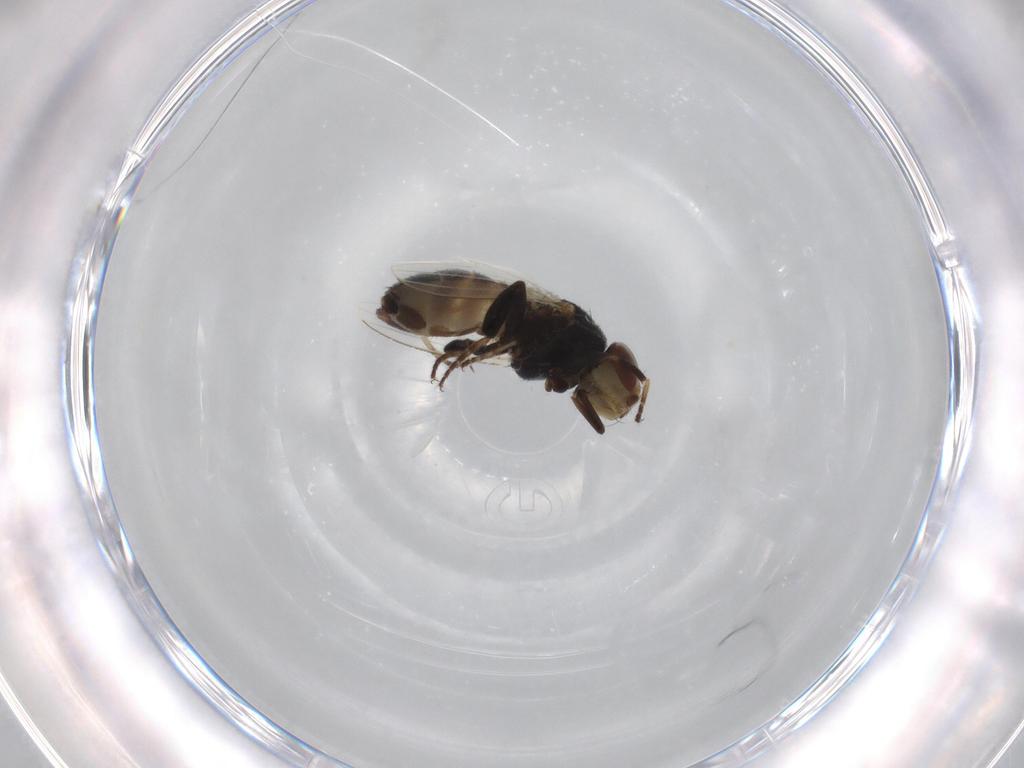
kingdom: Animalia
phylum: Arthropoda
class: Insecta
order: Diptera
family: Milichiidae
